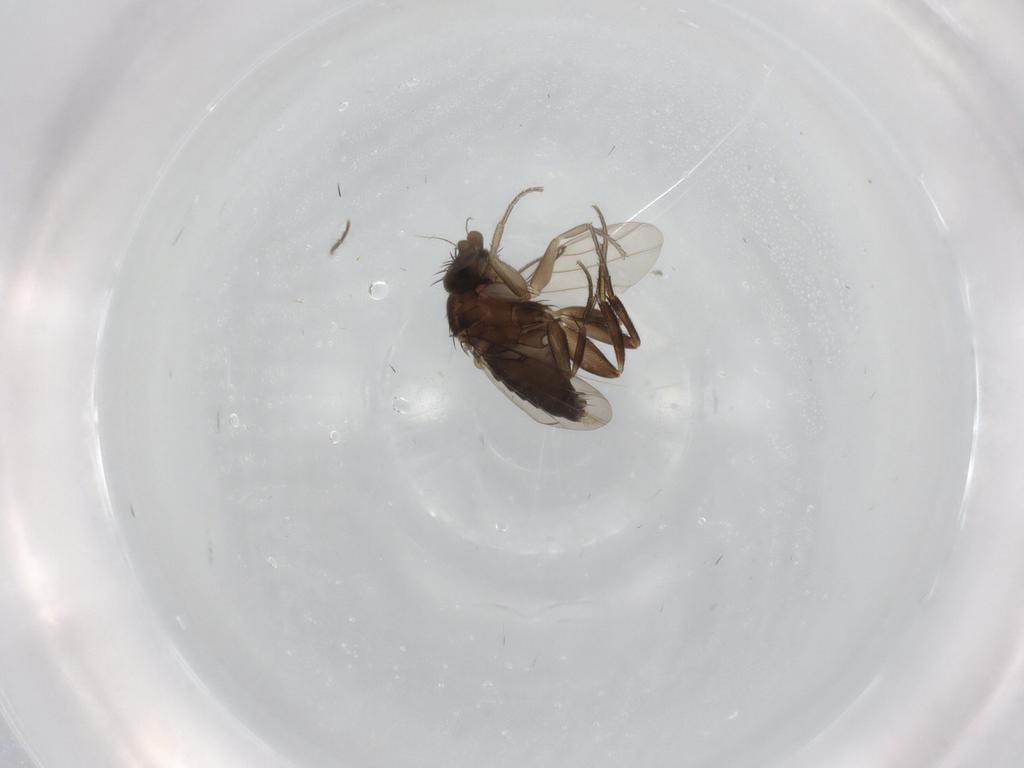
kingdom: Animalia
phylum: Arthropoda
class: Insecta
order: Diptera
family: Phoridae
